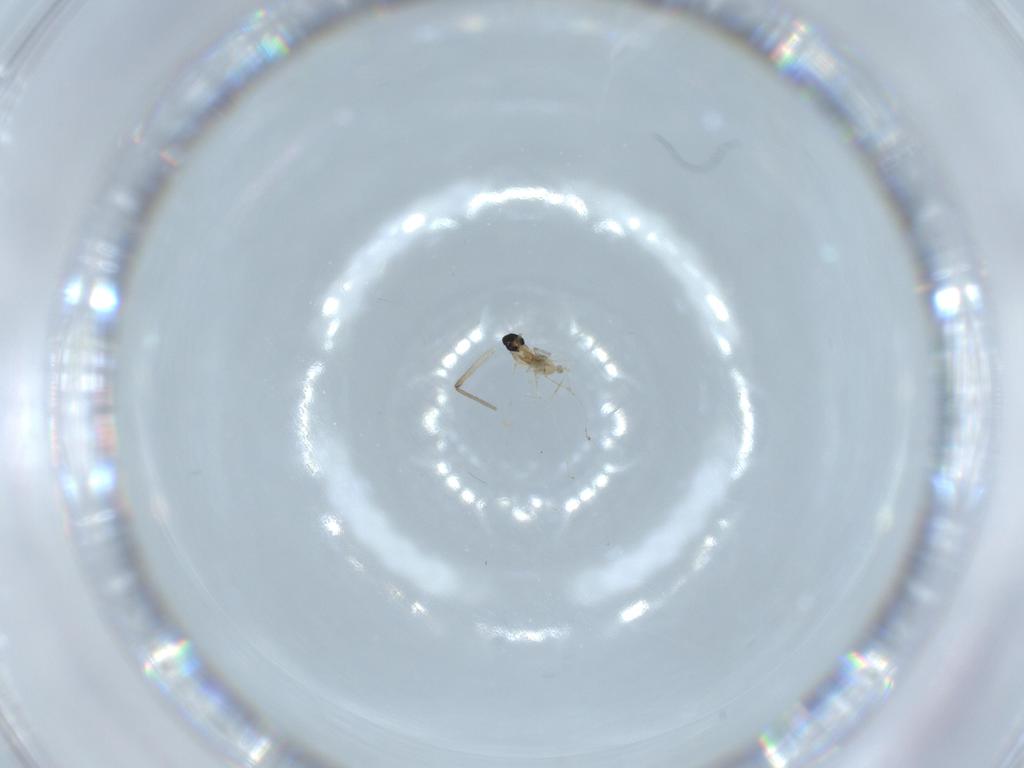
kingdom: Animalia
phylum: Arthropoda
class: Insecta
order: Diptera
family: Chironomidae
